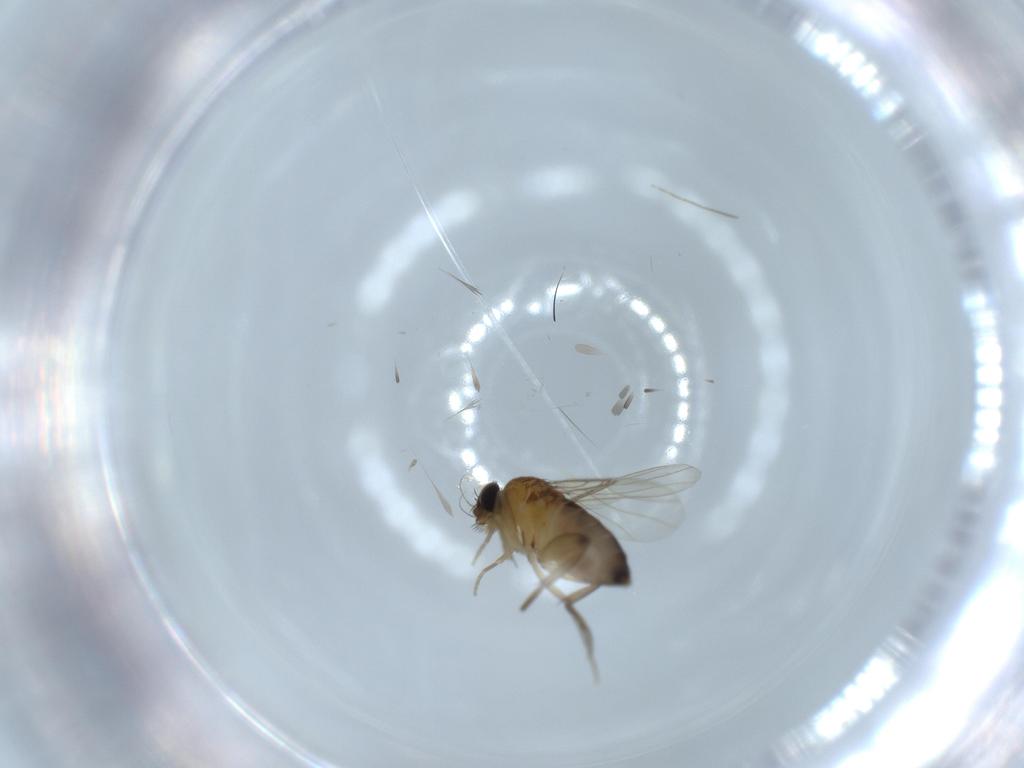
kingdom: Animalia
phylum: Arthropoda
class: Insecta
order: Diptera
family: Phoridae
